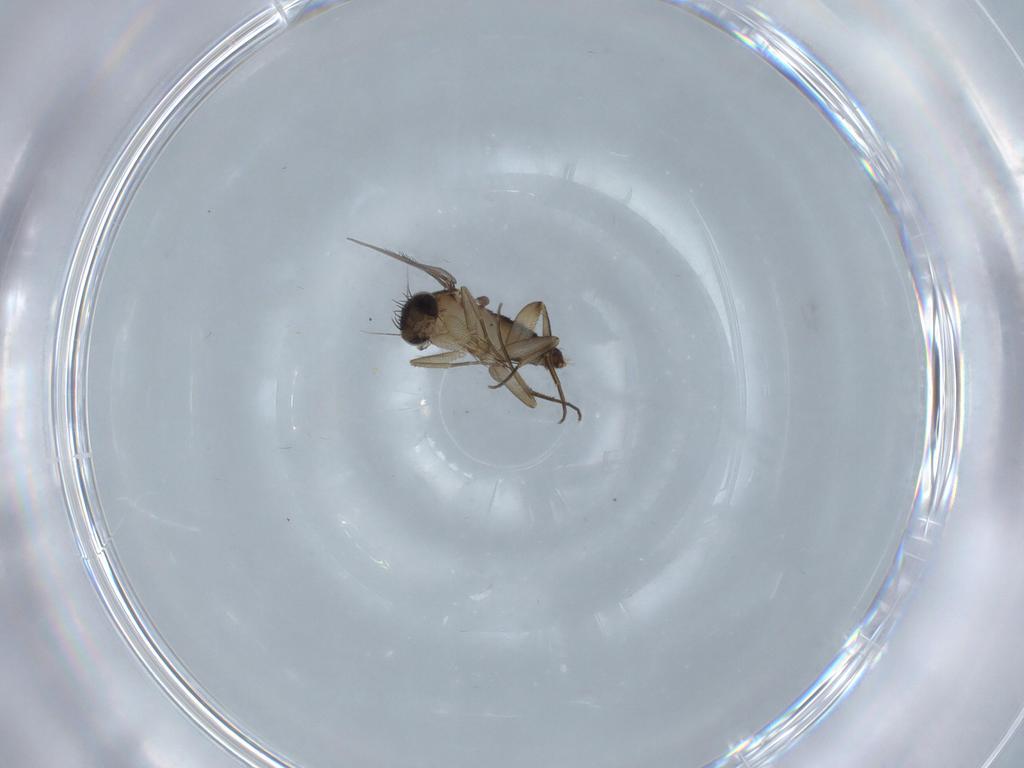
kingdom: Animalia
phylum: Arthropoda
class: Insecta
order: Diptera
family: Phoridae
